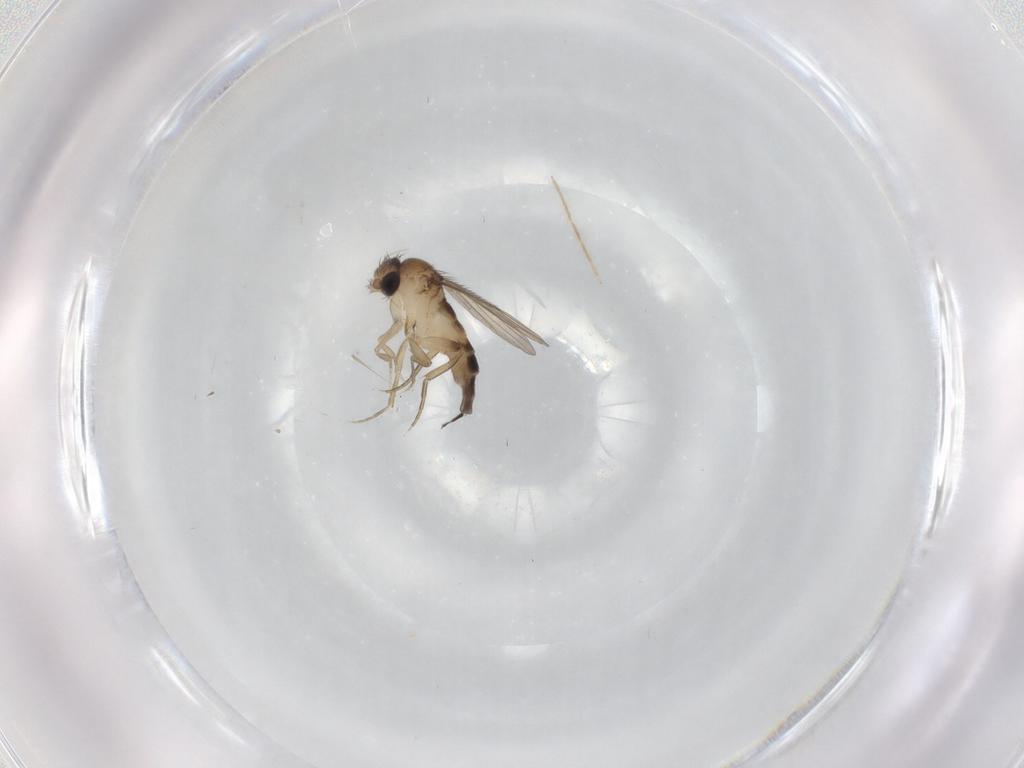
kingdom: Animalia
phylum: Arthropoda
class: Insecta
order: Diptera
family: Phoridae
